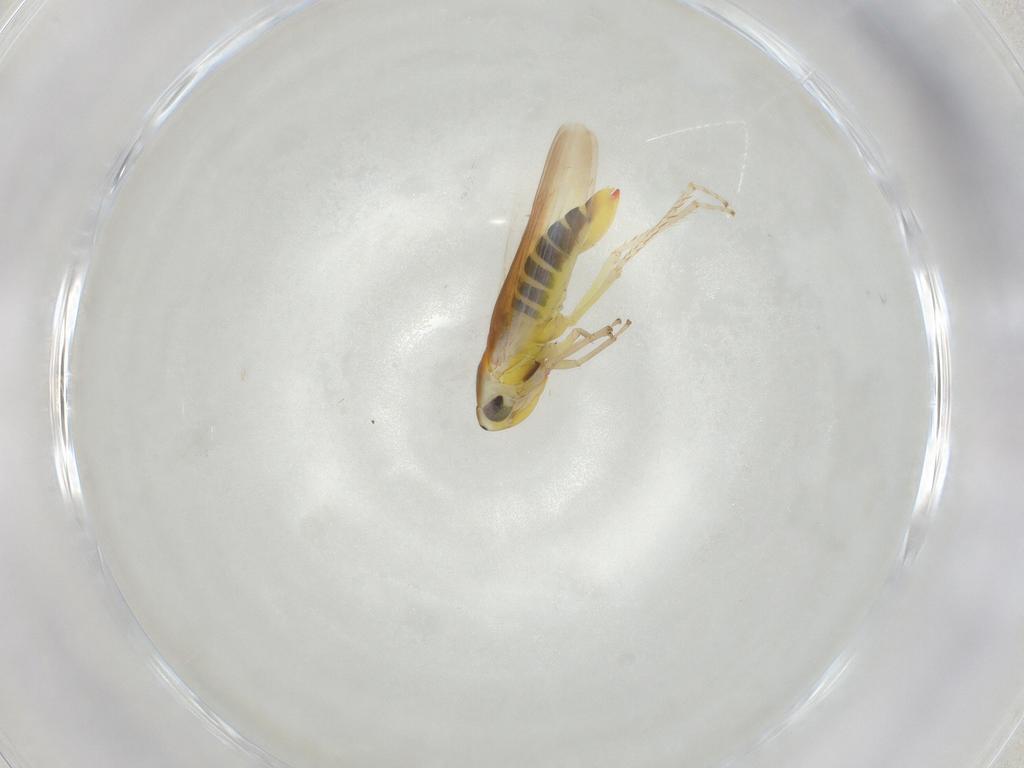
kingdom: Animalia
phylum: Arthropoda
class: Insecta
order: Hemiptera
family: Cicadellidae
